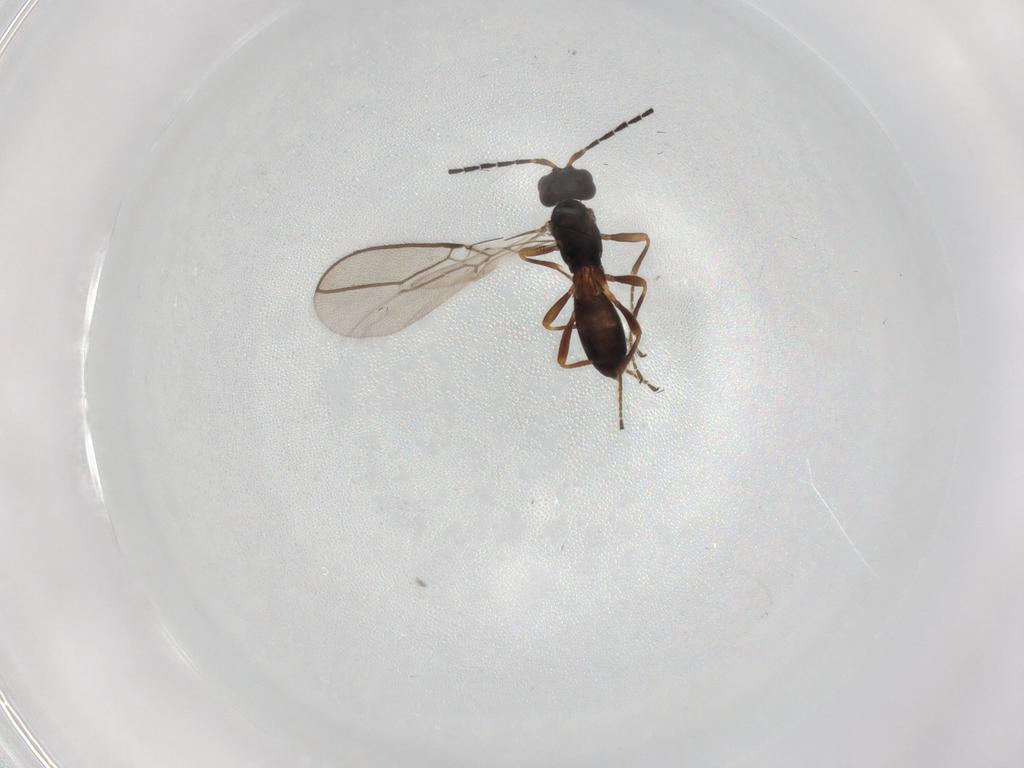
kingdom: Animalia
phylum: Arthropoda
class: Insecta
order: Hymenoptera
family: Braconidae
